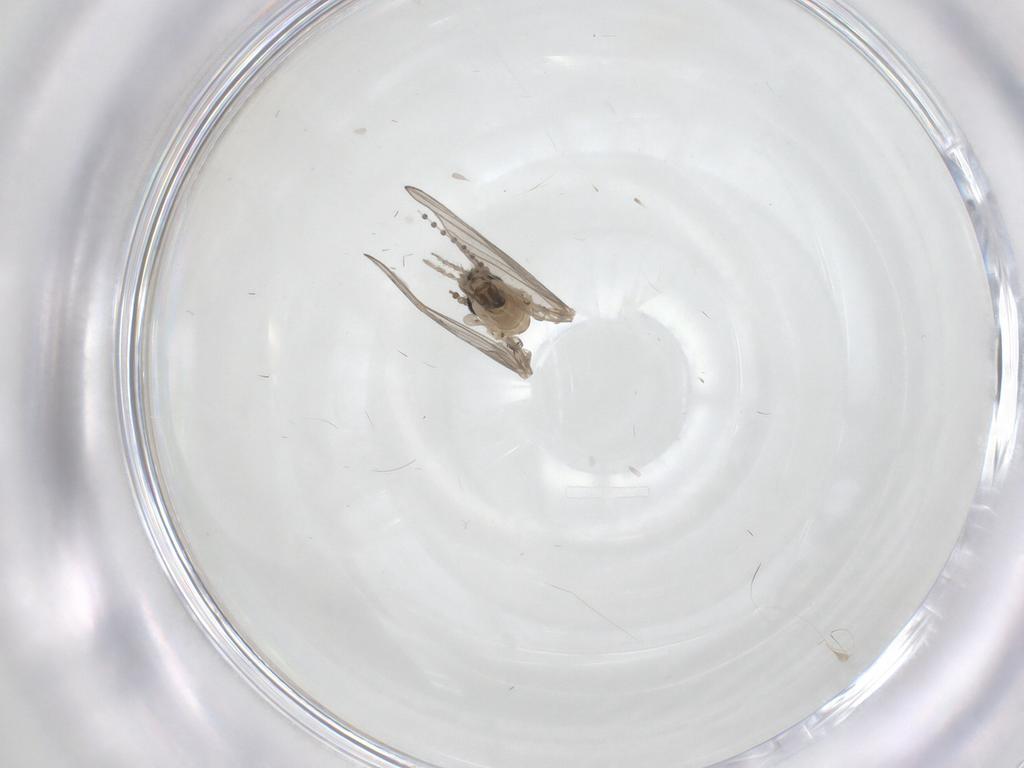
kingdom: Animalia
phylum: Arthropoda
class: Insecta
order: Diptera
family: Psychodidae
